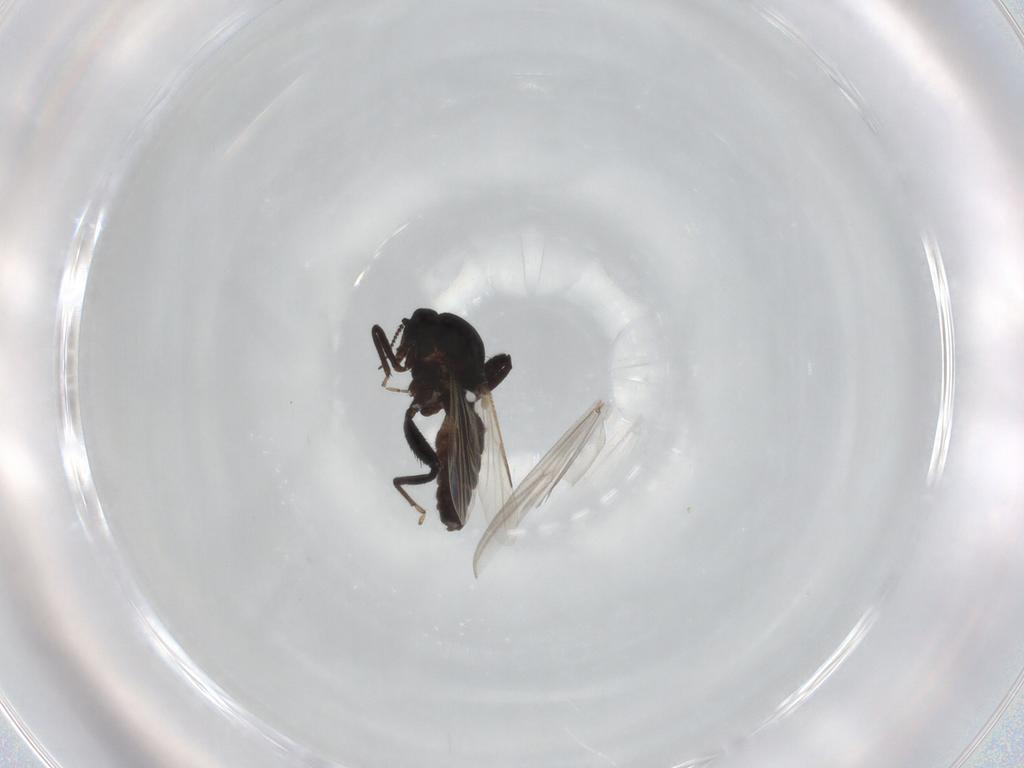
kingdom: Animalia
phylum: Arthropoda
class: Insecta
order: Diptera
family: Ceratopogonidae
